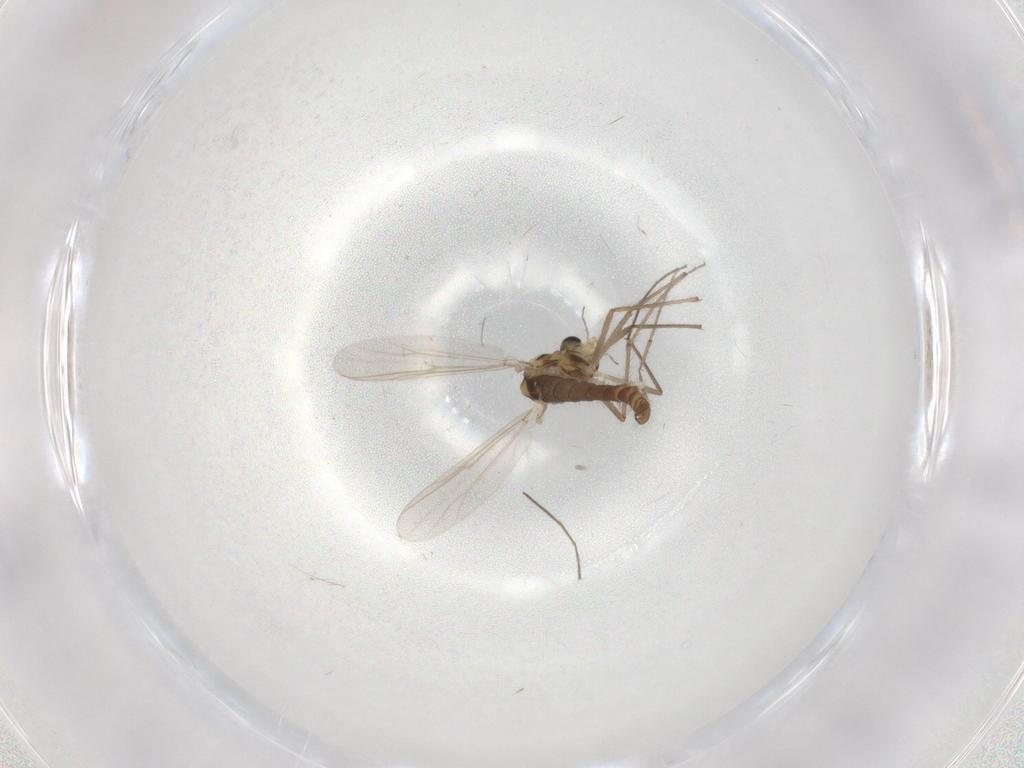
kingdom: Animalia
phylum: Arthropoda
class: Insecta
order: Diptera
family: Chironomidae
